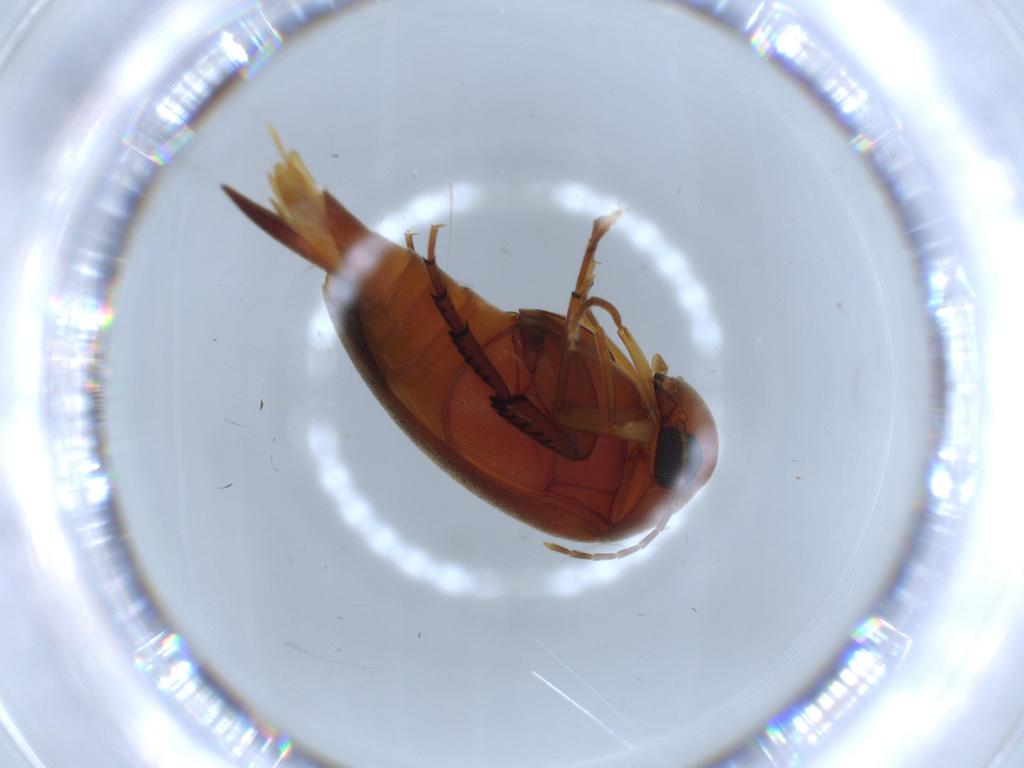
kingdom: Animalia
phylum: Arthropoda
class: Insecta
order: Coleoptera
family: Mordellidae
